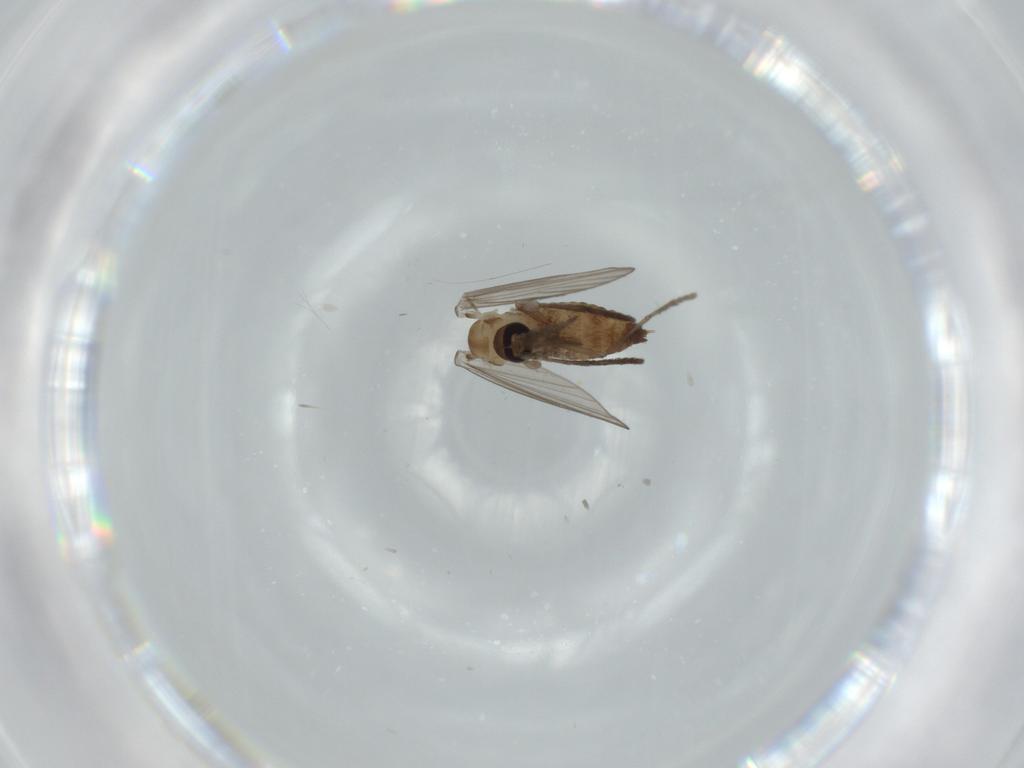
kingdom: Animalia
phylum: Arthropoda
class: Insecta
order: Diptera
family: Psychodidae
